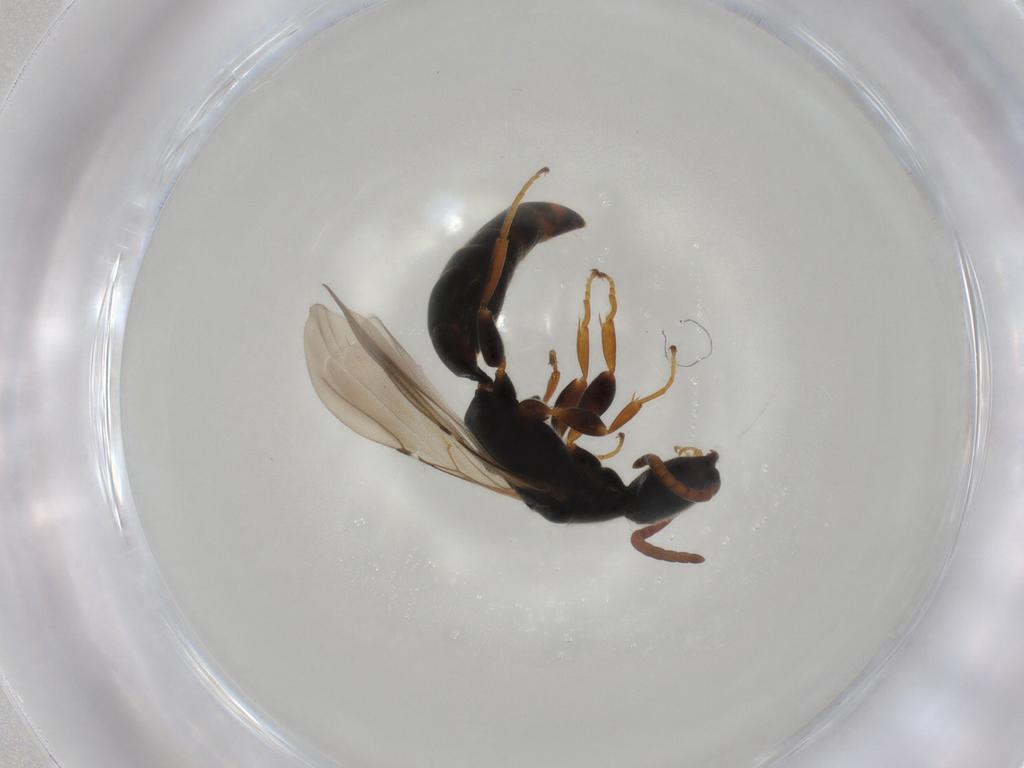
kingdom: Animalia
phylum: Arthropoda
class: Insecta
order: Hymenoptera
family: Bethylidae
